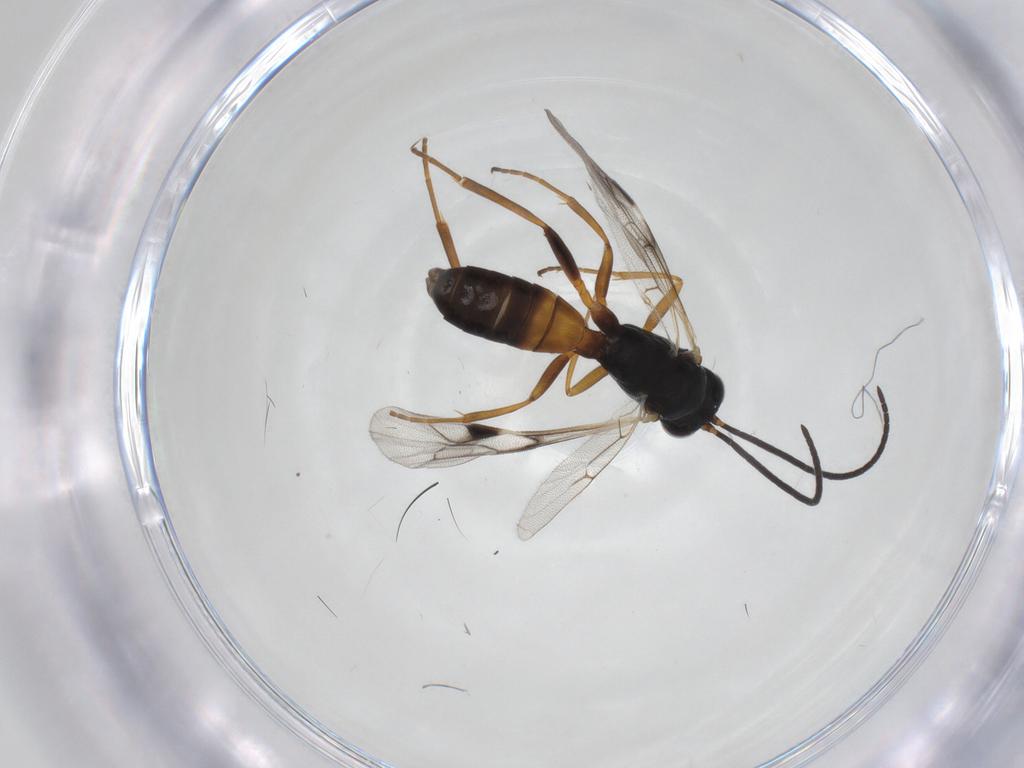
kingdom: Animalia
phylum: Arthropoda
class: Insecta
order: Hymenoptera
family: Ichneumonidae
